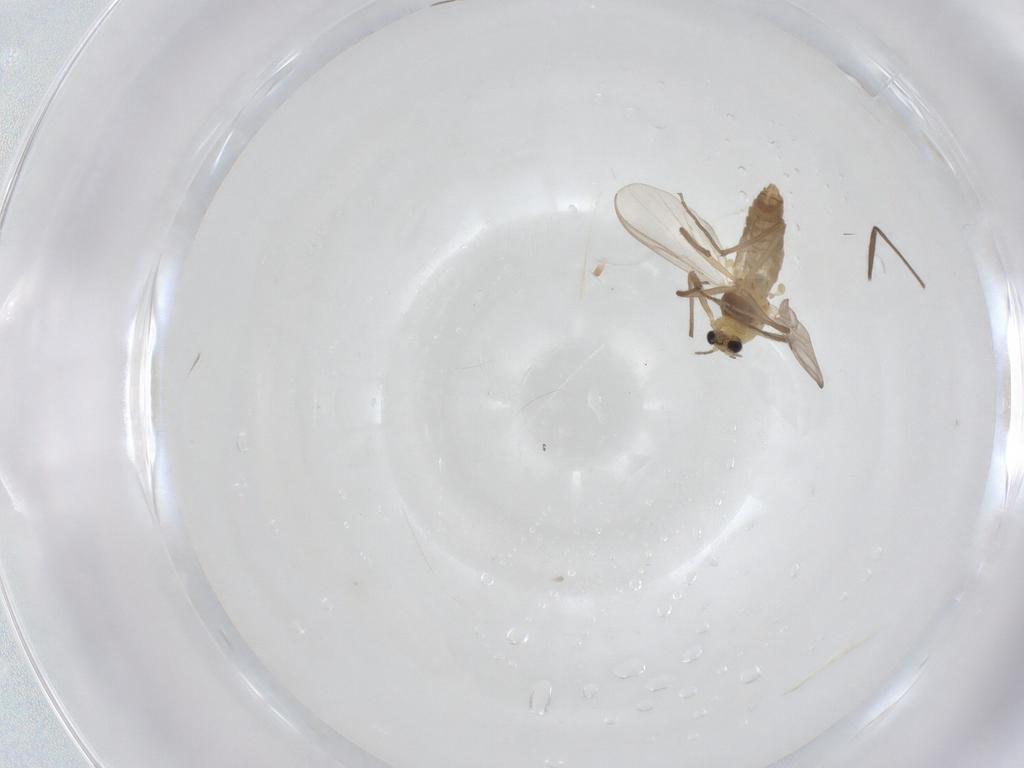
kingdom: Animalia
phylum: Arthropoda
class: Insecta
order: Diptera
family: Chironomidae
